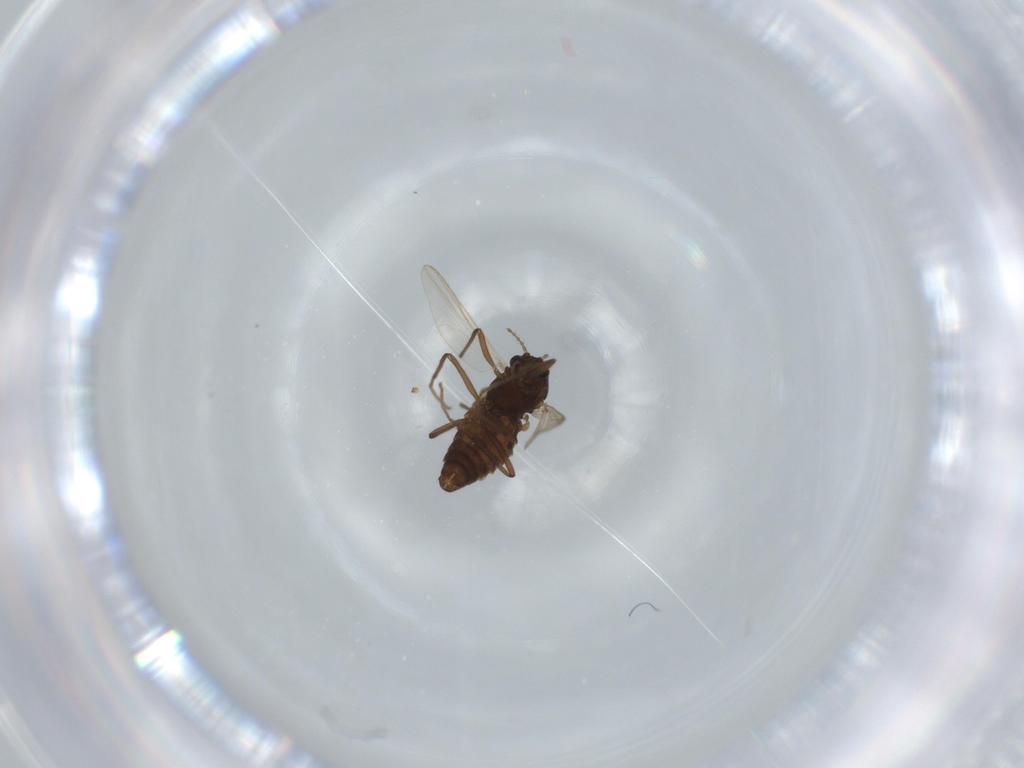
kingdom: Animalia
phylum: Arthropoda
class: Insecta
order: Diptera
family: Chironomidae
